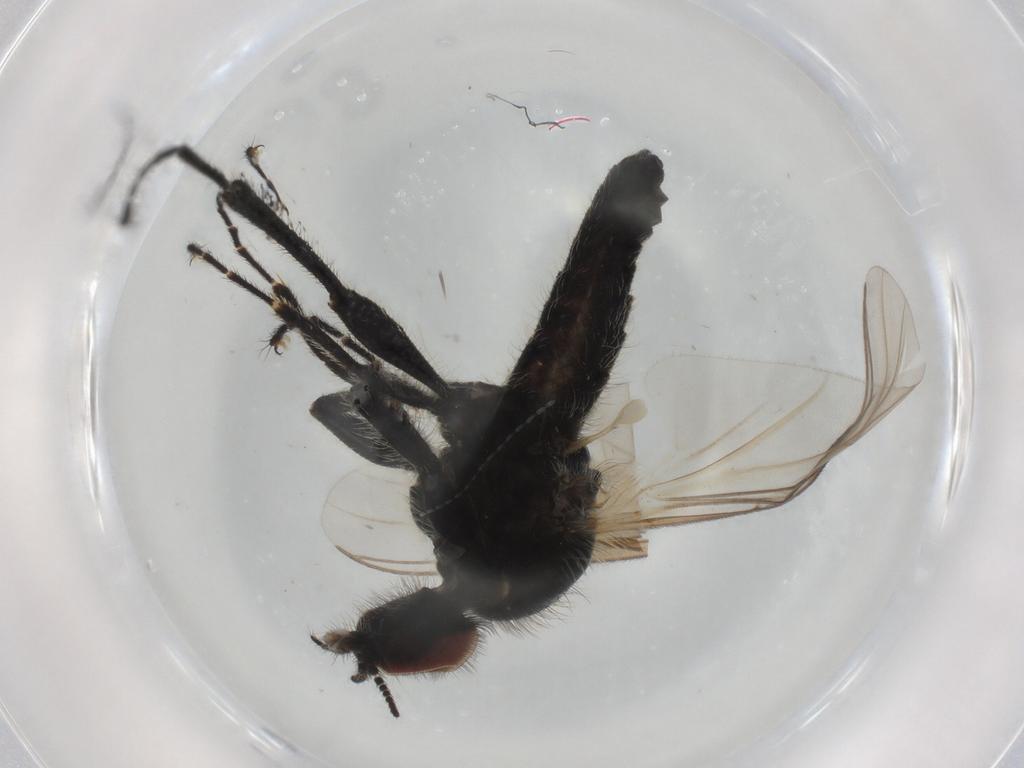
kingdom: Animalia
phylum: Arthropoda
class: Insecta
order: Diptera
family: Bibionidae
